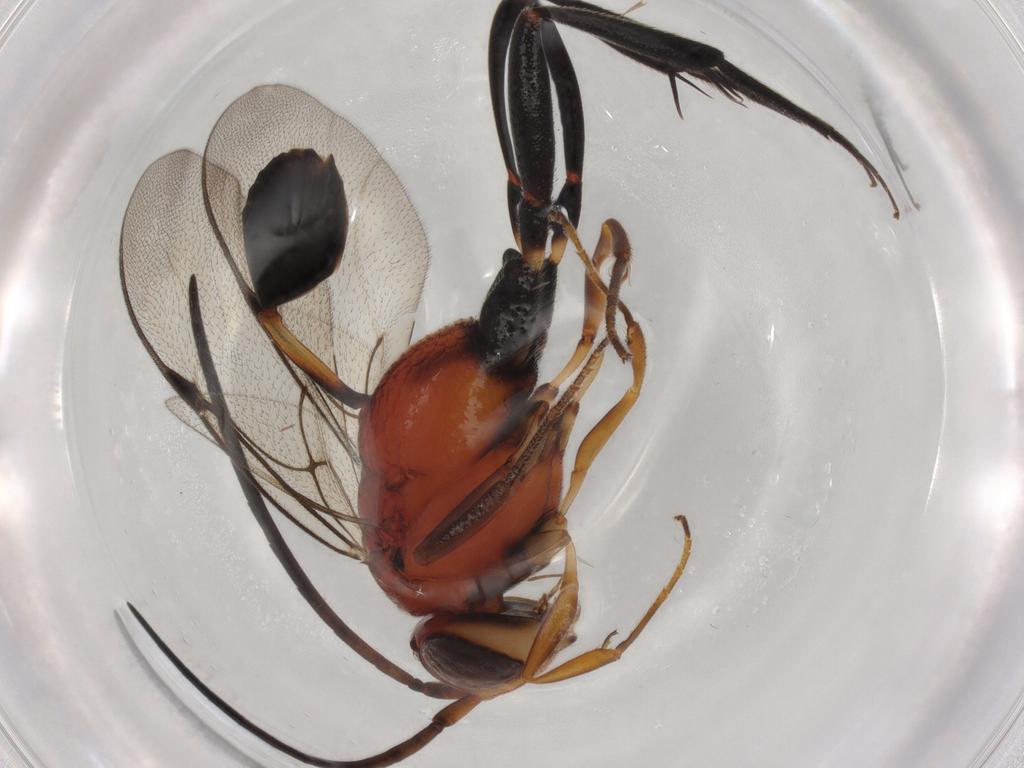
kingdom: Animalia
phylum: Arthropoda
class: Insecta
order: Hymenoptera
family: Evaniidae
